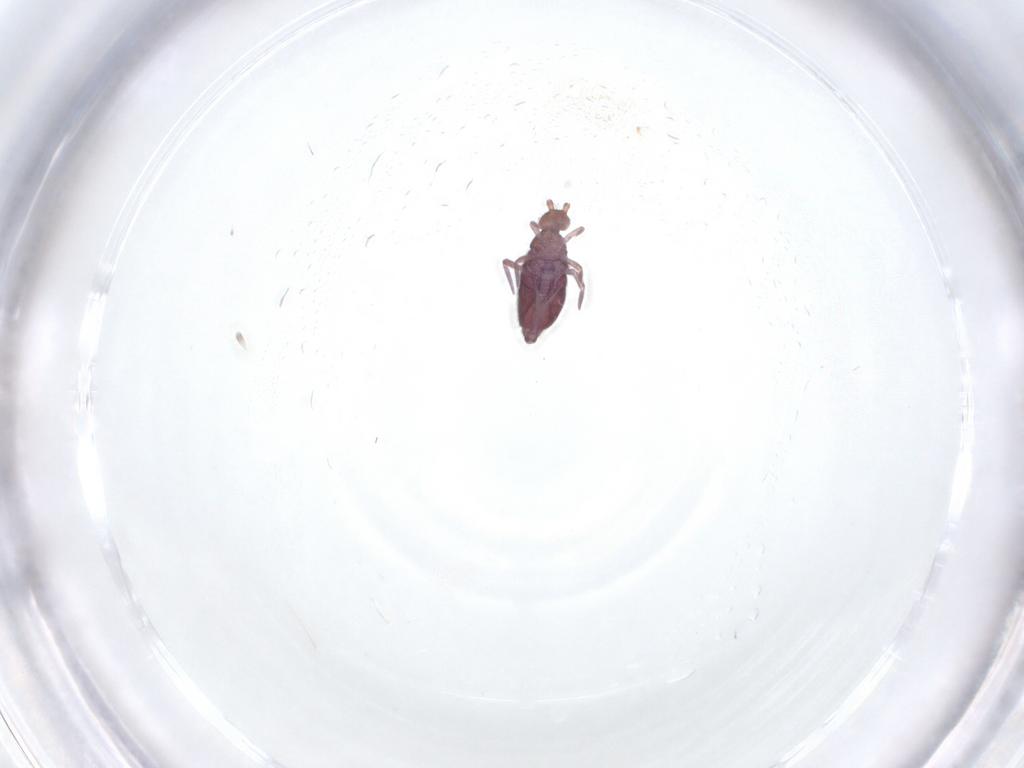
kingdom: Animalia
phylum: Arthropoda
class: Collembola
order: Entomobryomorpha
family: Entomobryidae
